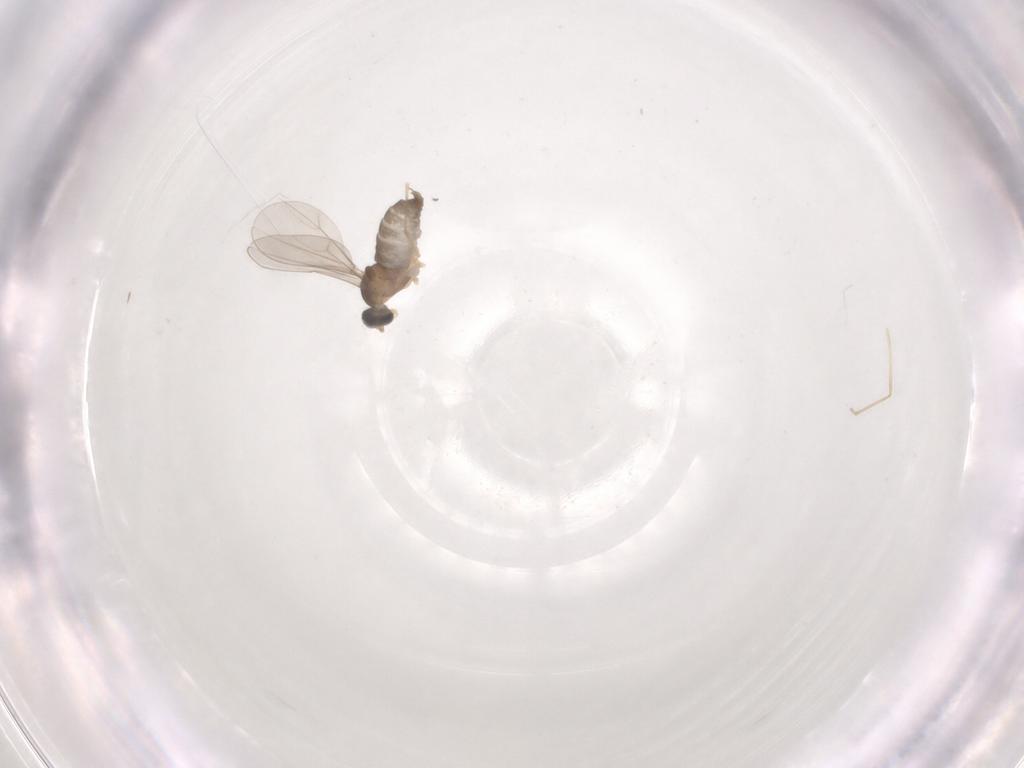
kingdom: Animalia
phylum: Arthropoda
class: Insecta
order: Diptera
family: Cecidomyiidae
